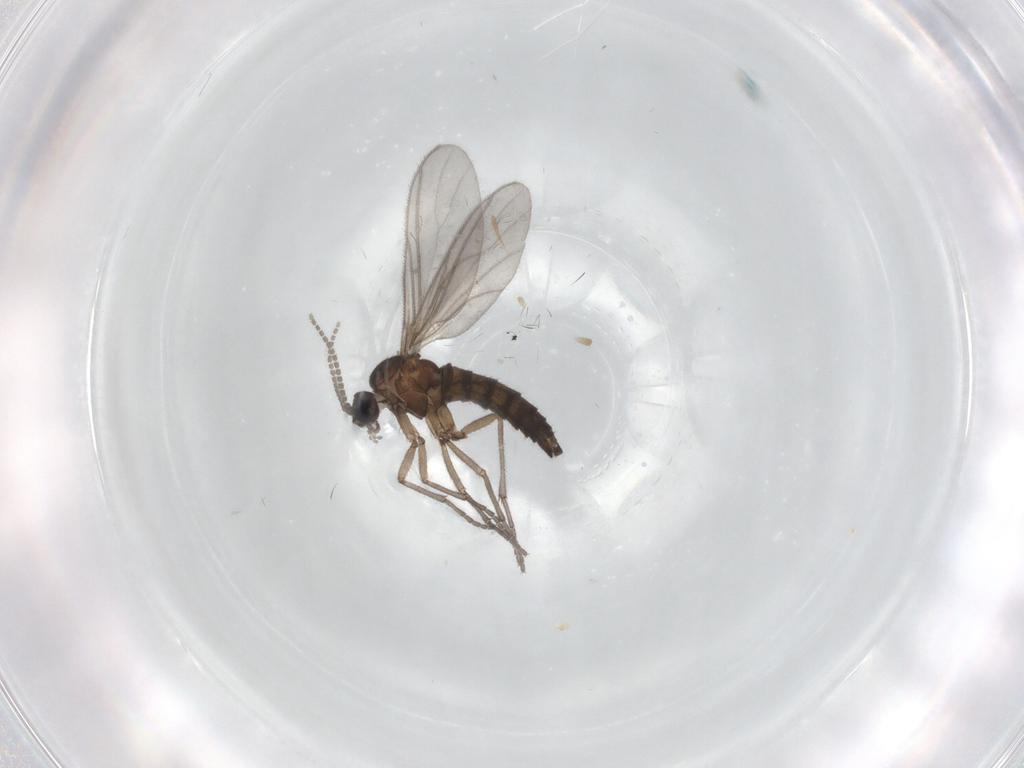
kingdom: Animalia
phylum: Arthropoda
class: Insecta
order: Diptera
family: Sciaridae
